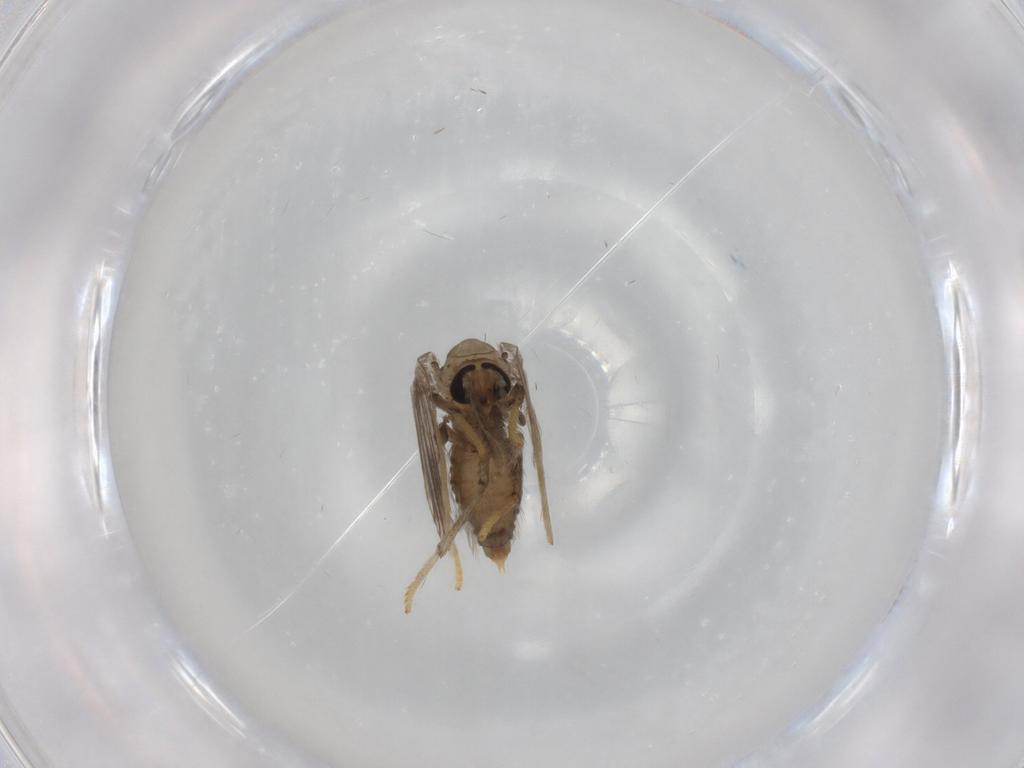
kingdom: Animalia
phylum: Arthropoda
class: Insecta
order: Diptera
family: Psychodidae
